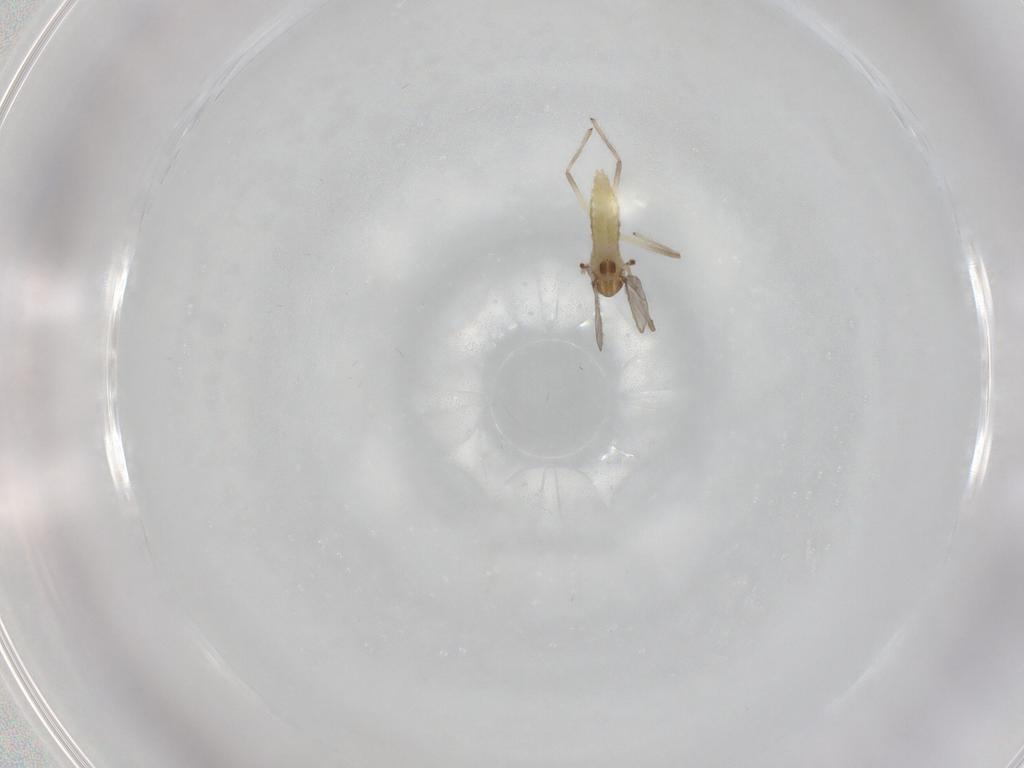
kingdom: Animalia
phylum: Arthropoda
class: Insecta
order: Diptera
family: Chironomidae
